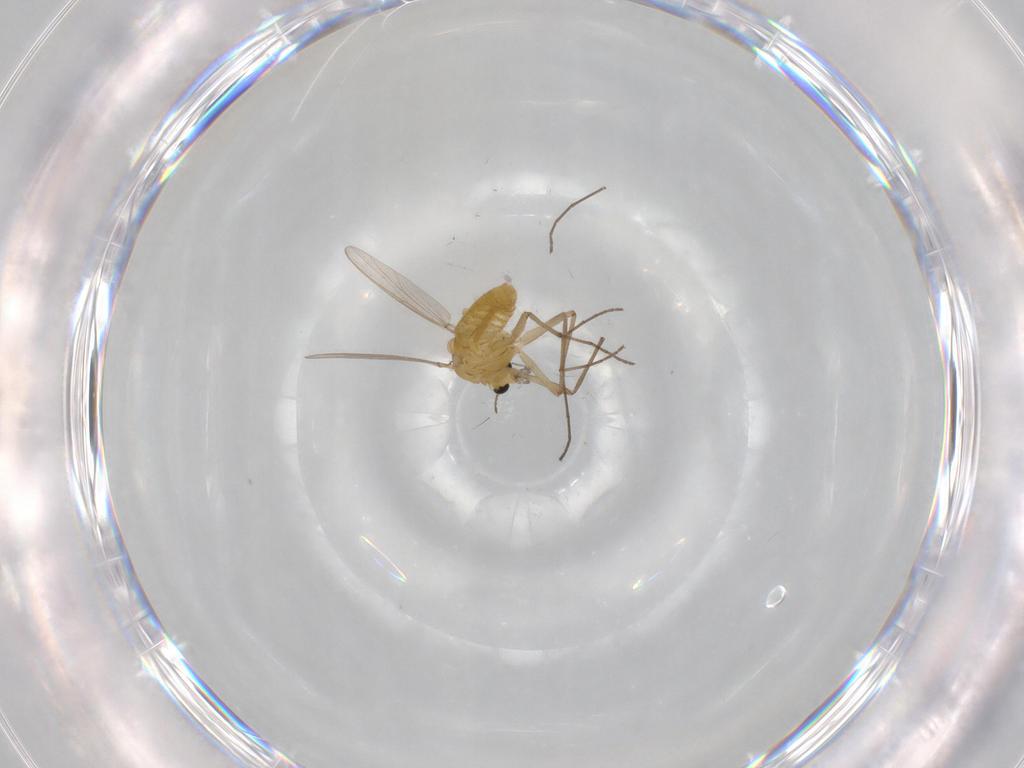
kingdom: Animalia
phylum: Arthropoda
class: Insecta
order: Diptera
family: Chironomidae
